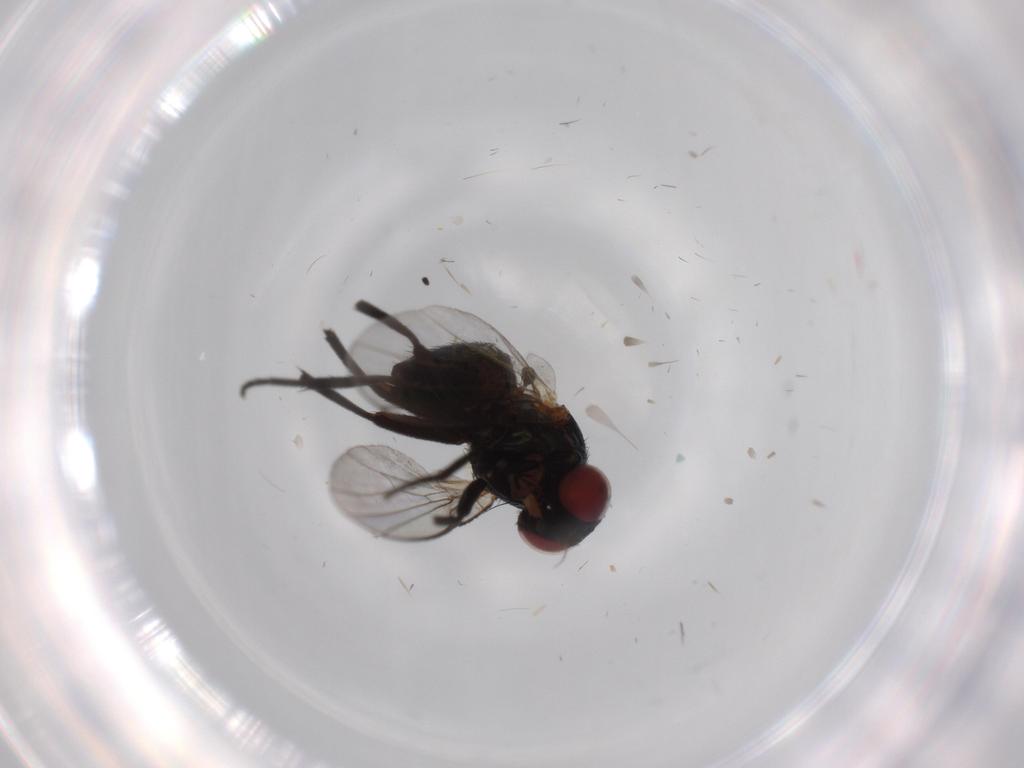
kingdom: Animalia
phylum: Arthropoda
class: Insecta
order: Diptera
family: Agromyzidae
